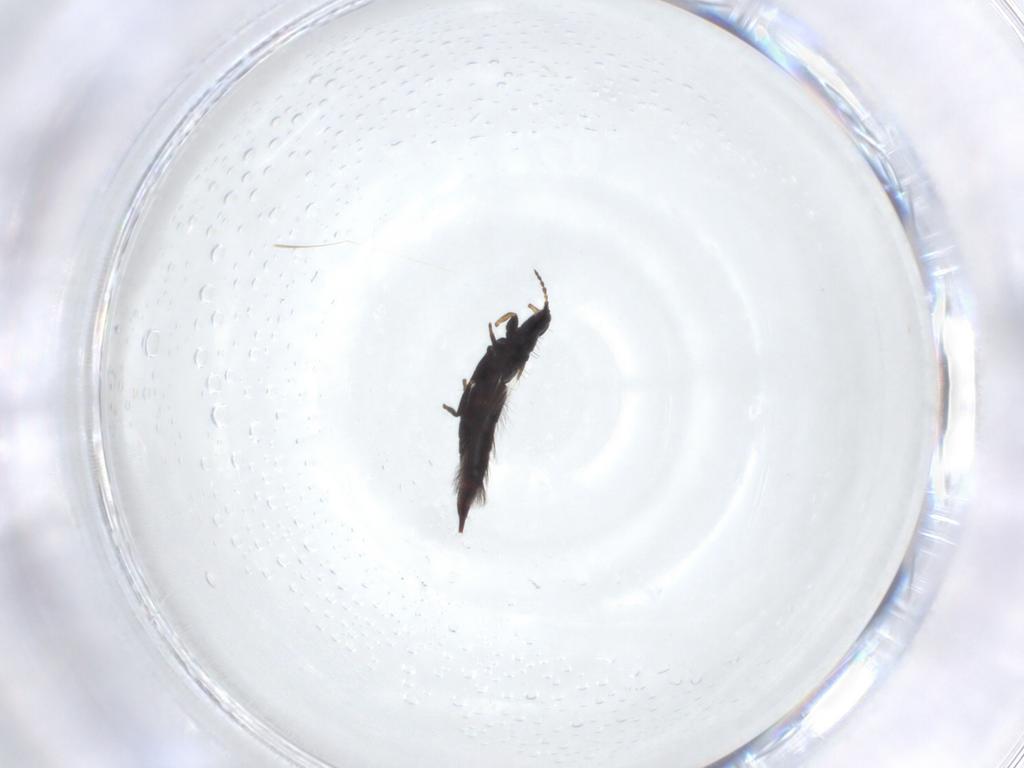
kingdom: Animalia
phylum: Arthropoda
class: Insecta
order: Thysanoptera
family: Phlaeothripidae
